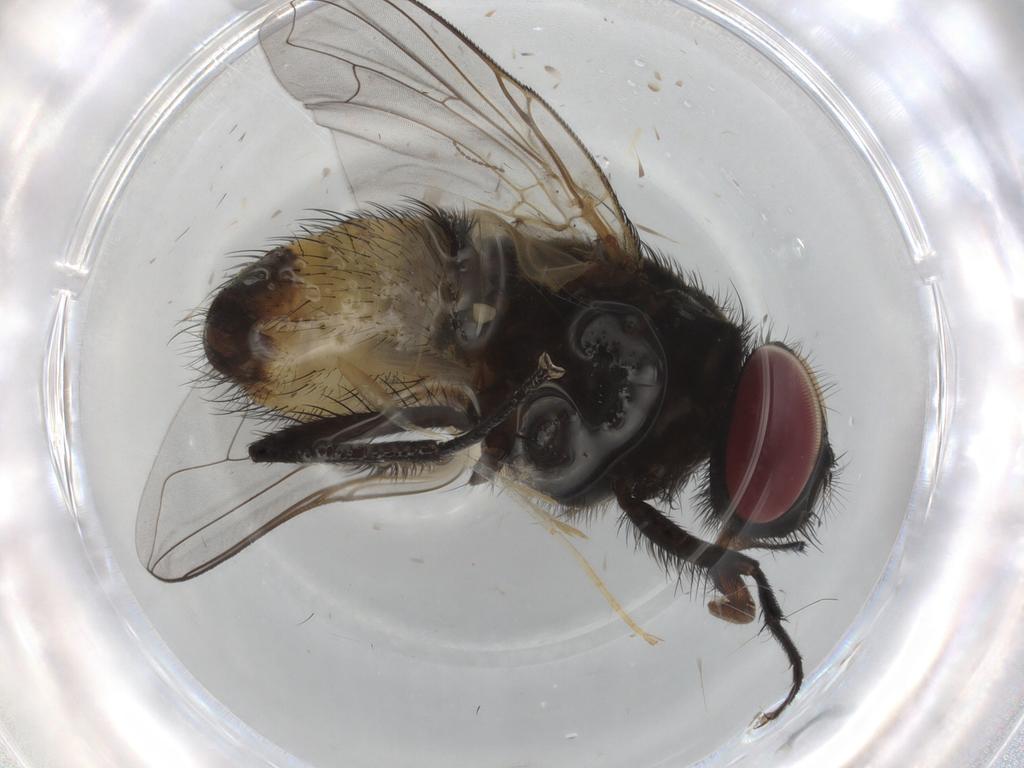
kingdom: Animalia
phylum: Arthropoda
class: Insecta
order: Diptera
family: Muscidae
